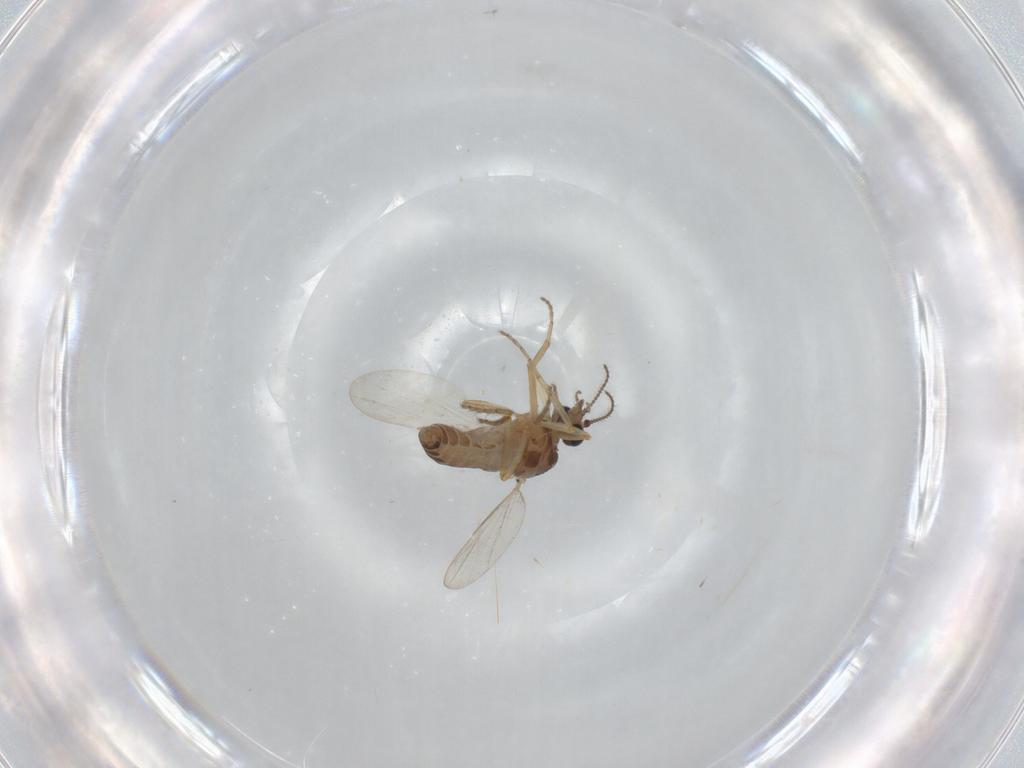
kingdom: Animalia
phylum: Arthropoda
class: Insecta
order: Diptera
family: Ceratopogonidae
